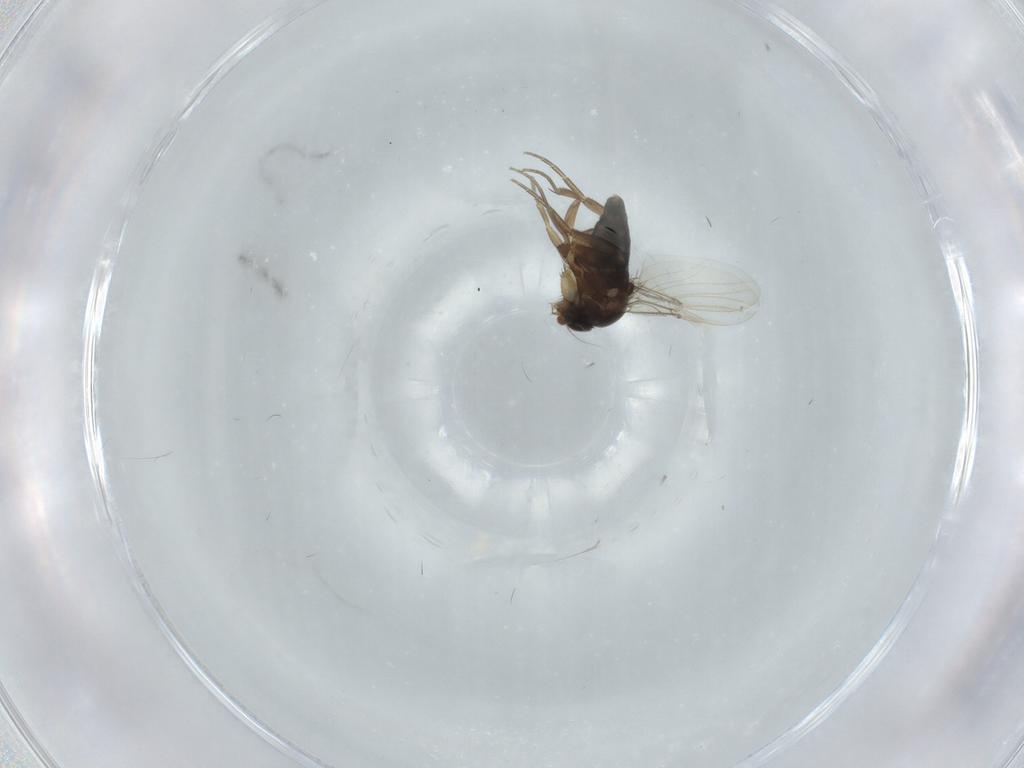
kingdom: Animalia
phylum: Arthropoda
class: Insecta
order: Diptera
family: Phoridae
